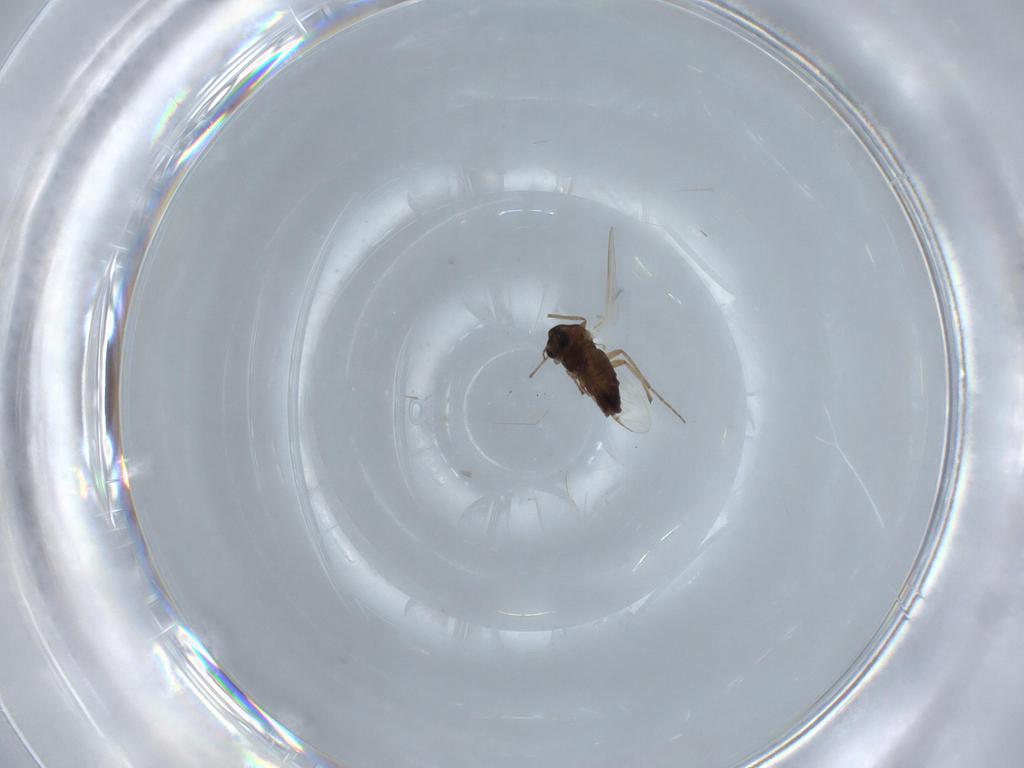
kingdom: Animalia
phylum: Arthropoda
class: Insecta
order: Diptera
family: Chironomidae
